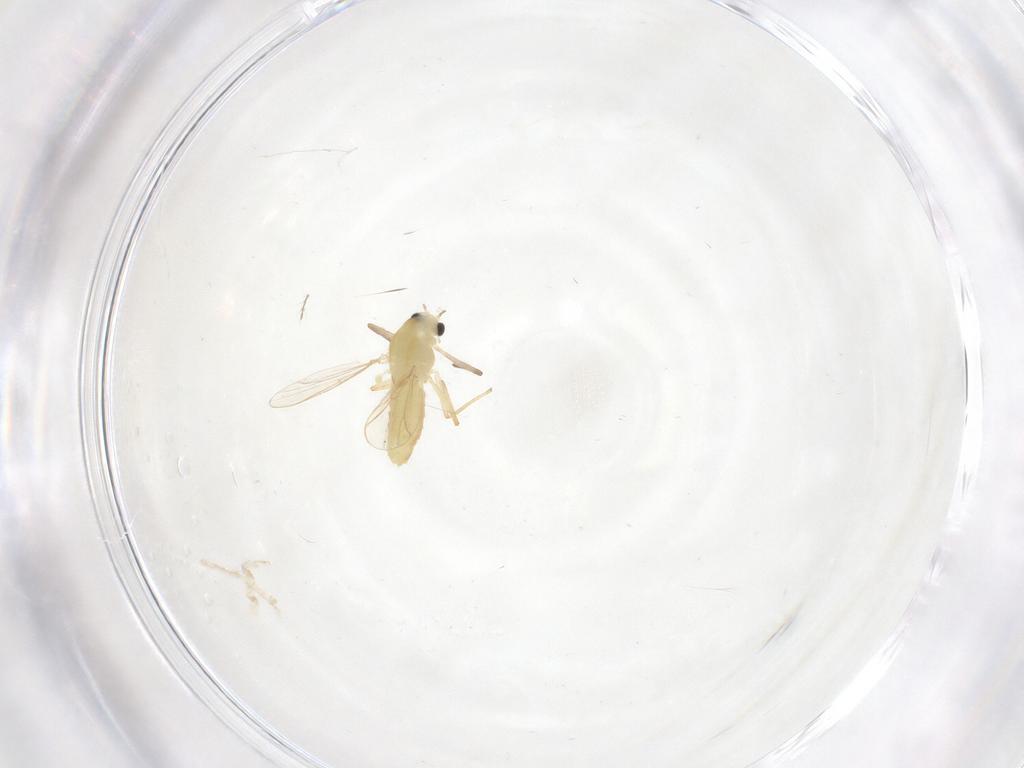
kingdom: Animalia
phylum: Arthropoda
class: Insecta
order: Diptera
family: Chironomidae
